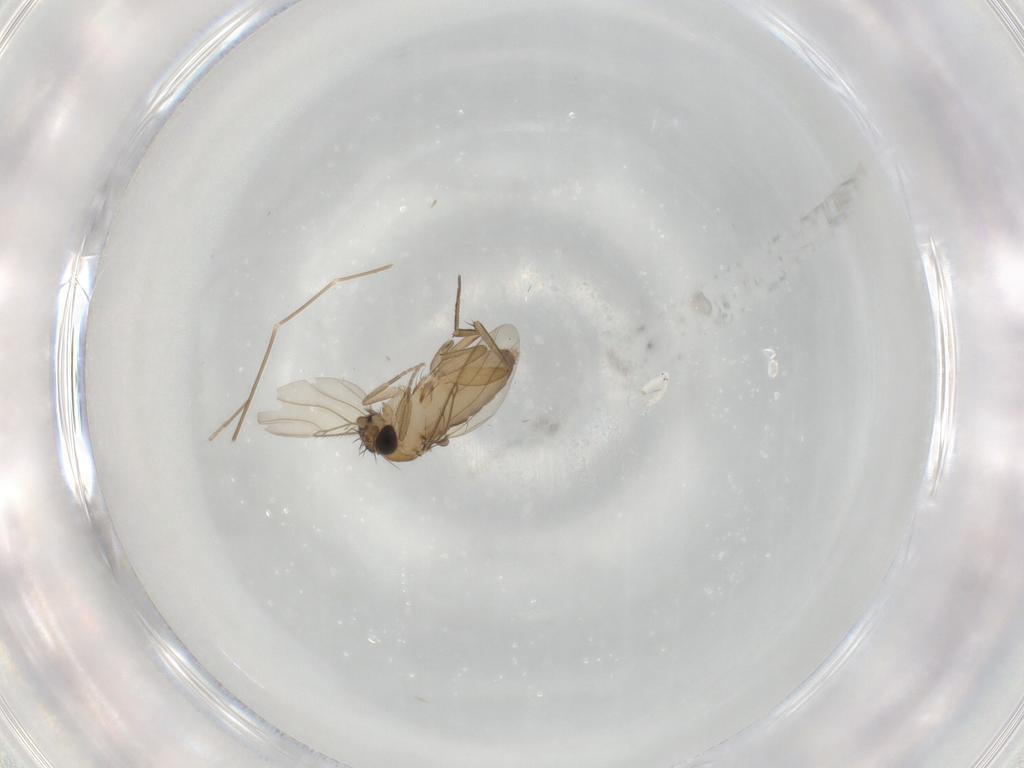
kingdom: Animalia
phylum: Arthropoda
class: Insecta
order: Diptera
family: Phoridae
